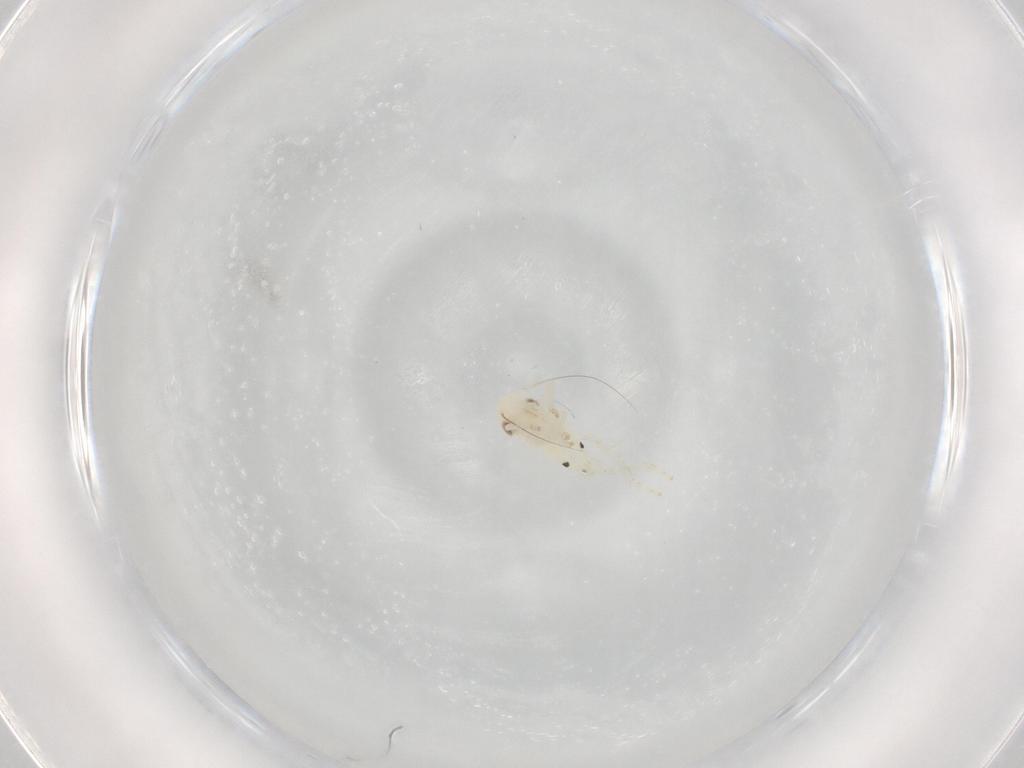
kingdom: Animalia
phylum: Arthropoda
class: Insecta
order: Hemiptera
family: Cicadellidae
